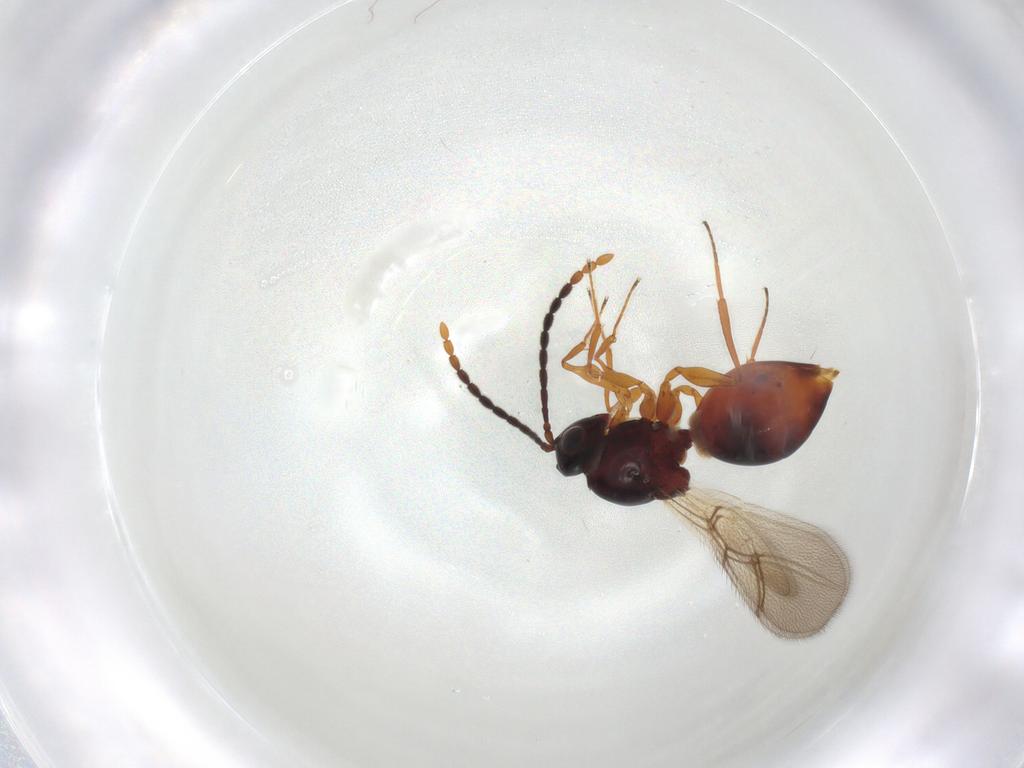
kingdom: Animalia
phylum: Arthropoda
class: Insecta
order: Hymenoptera
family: Figitidae
